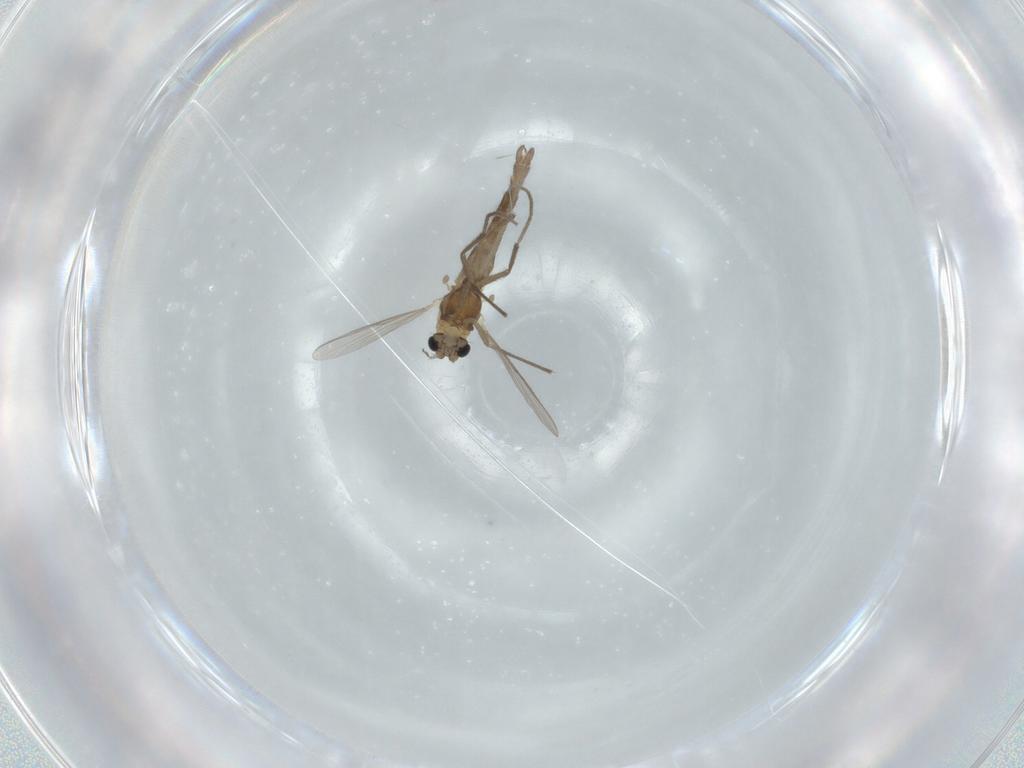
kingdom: Animalia
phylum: Arthropoda
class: Insecta
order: Diptera
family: Chironomidae
